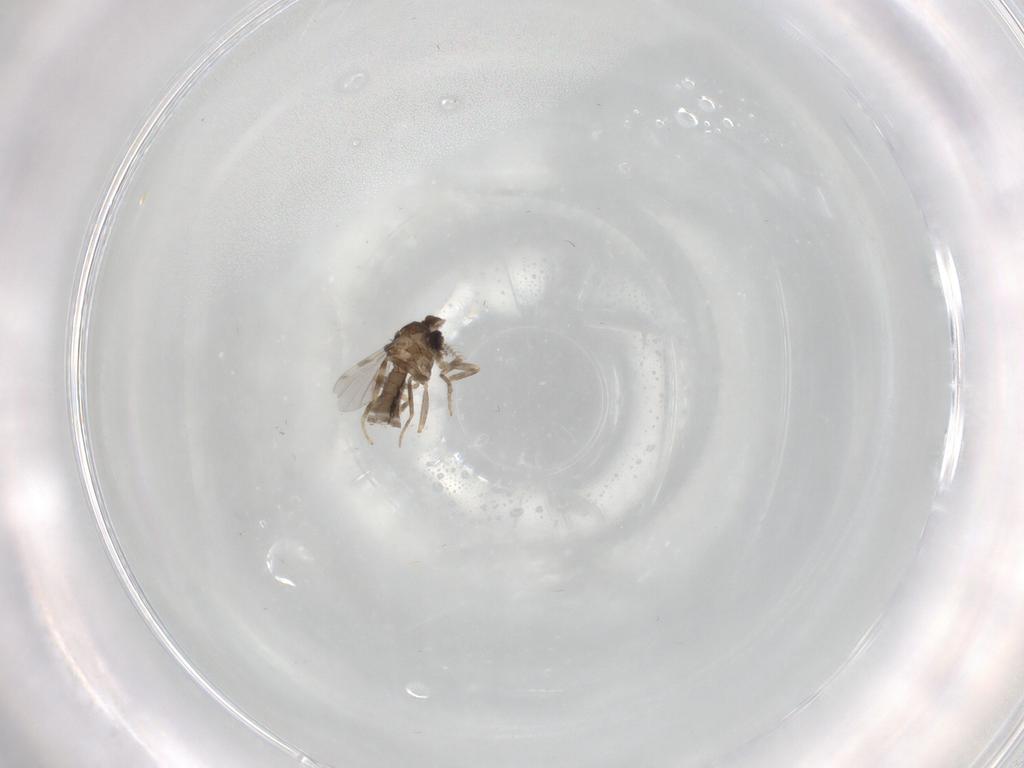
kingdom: Animalia
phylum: Arthropoda
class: Insecta
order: Diptera
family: Ceratopogonidae
